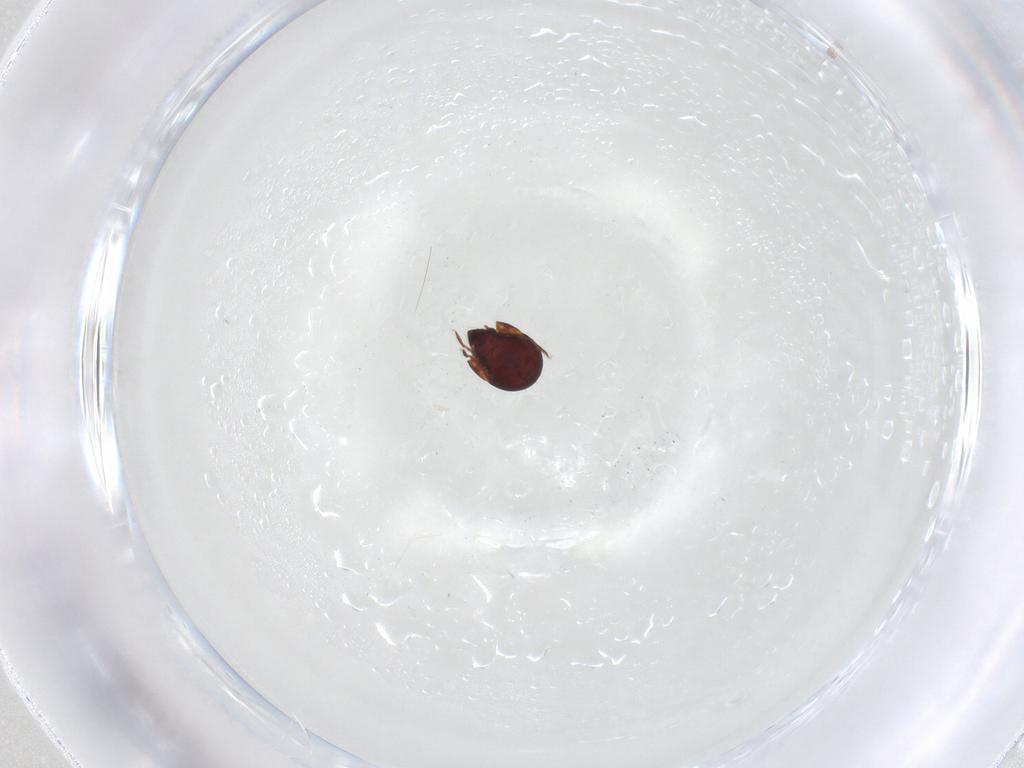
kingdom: Animalia
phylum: Arthropoda
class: Arachnida
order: Sarcoptiformes
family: Humerobatidae
